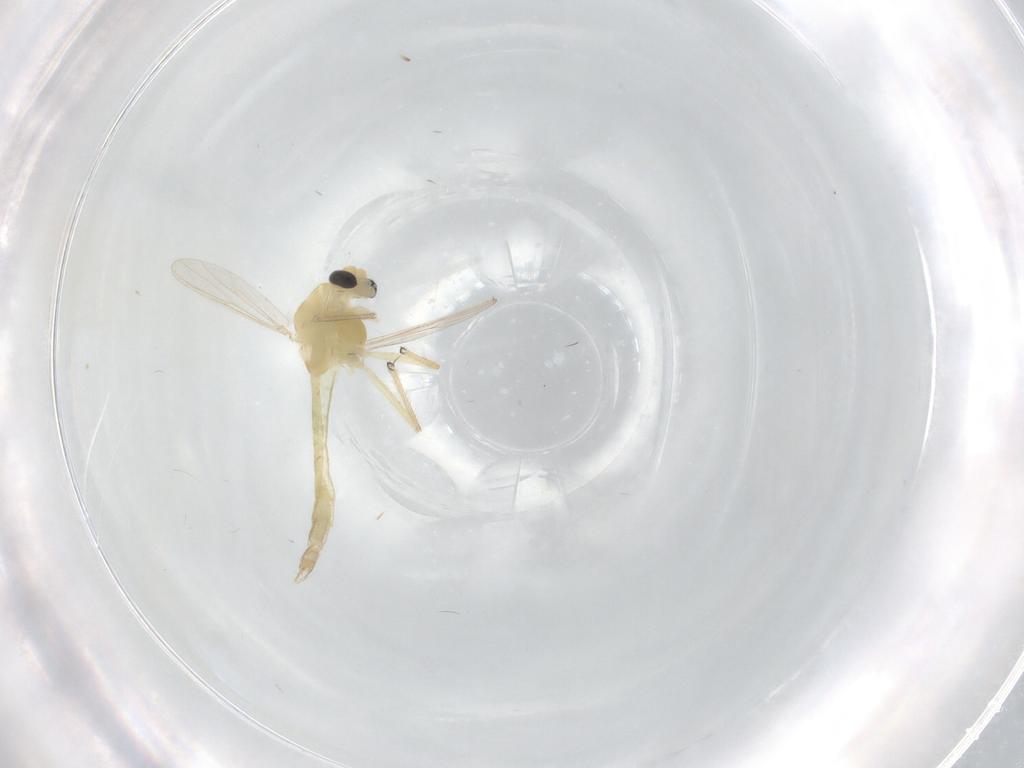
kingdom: Animalia
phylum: Arthropoda
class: Insecta
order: Diptera
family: Chironomidae
